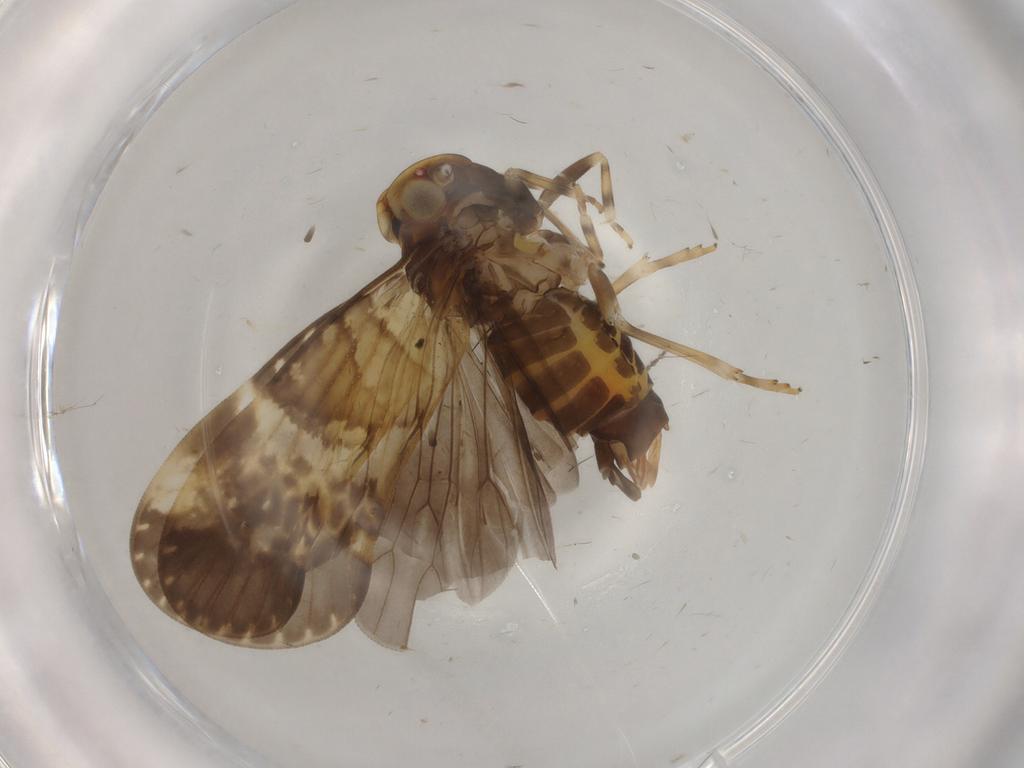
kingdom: Animalia
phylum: Arthropoda
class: Insecta
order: Hemiptera
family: Cixiidae
